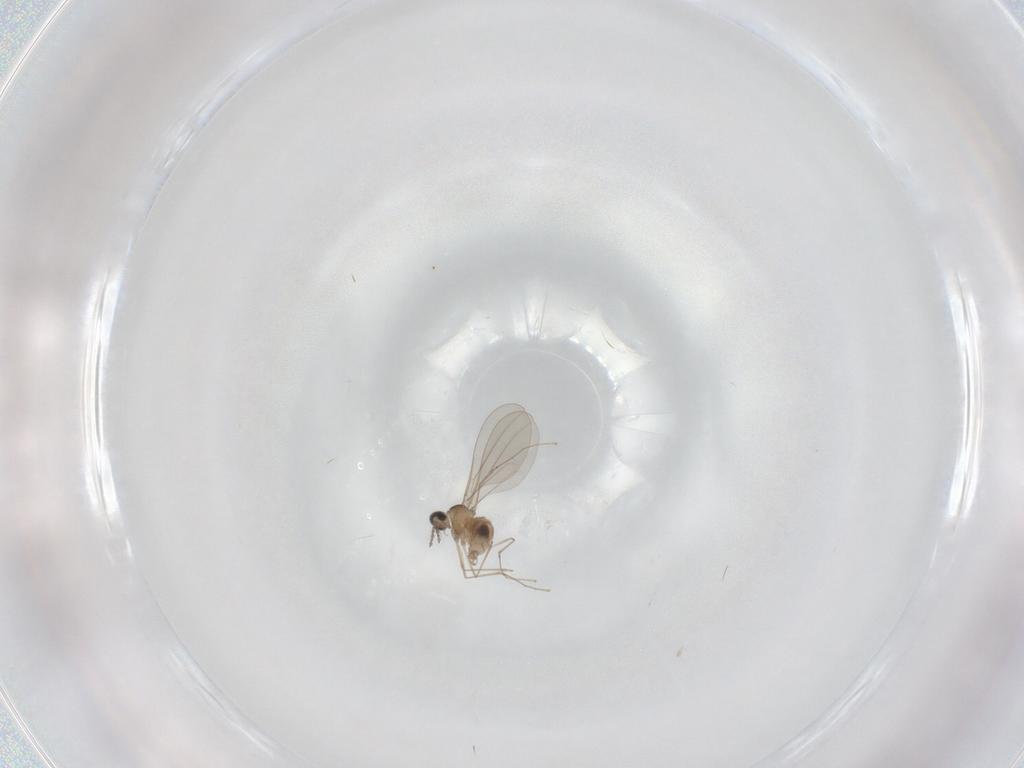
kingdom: Animalia
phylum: Arthropoda
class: Insecta
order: Diptera
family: Cecidomyiidae
